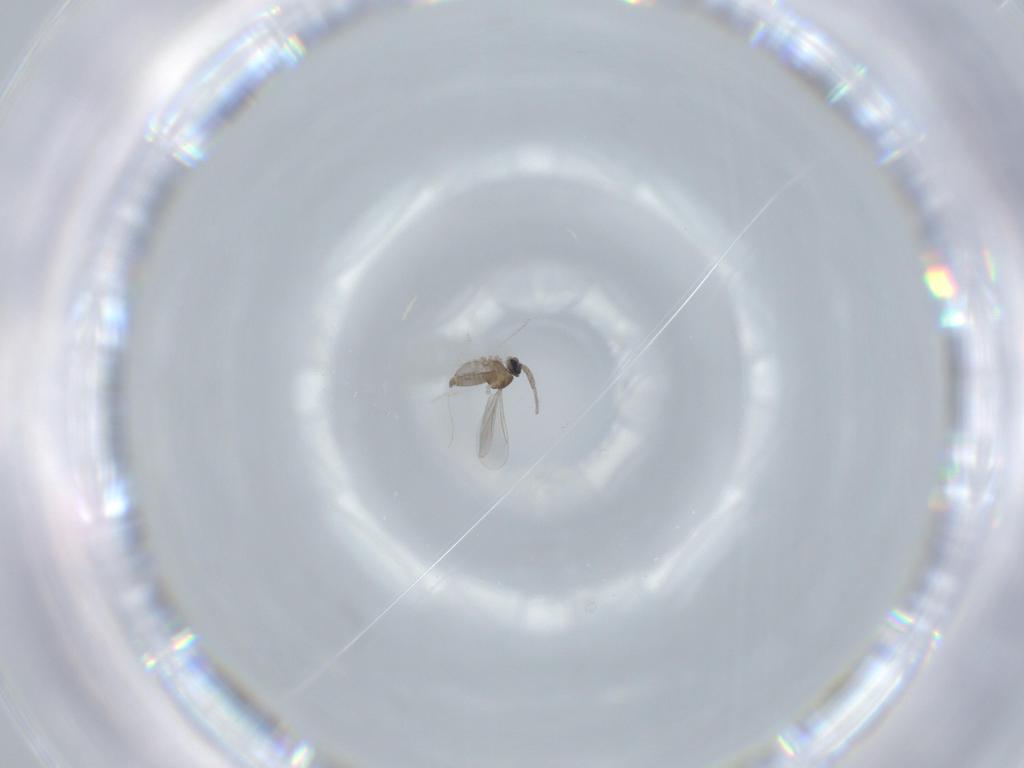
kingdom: Animalia
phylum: Arthropoda
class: Insecta
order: Diptera
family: Cecidomyiidae
